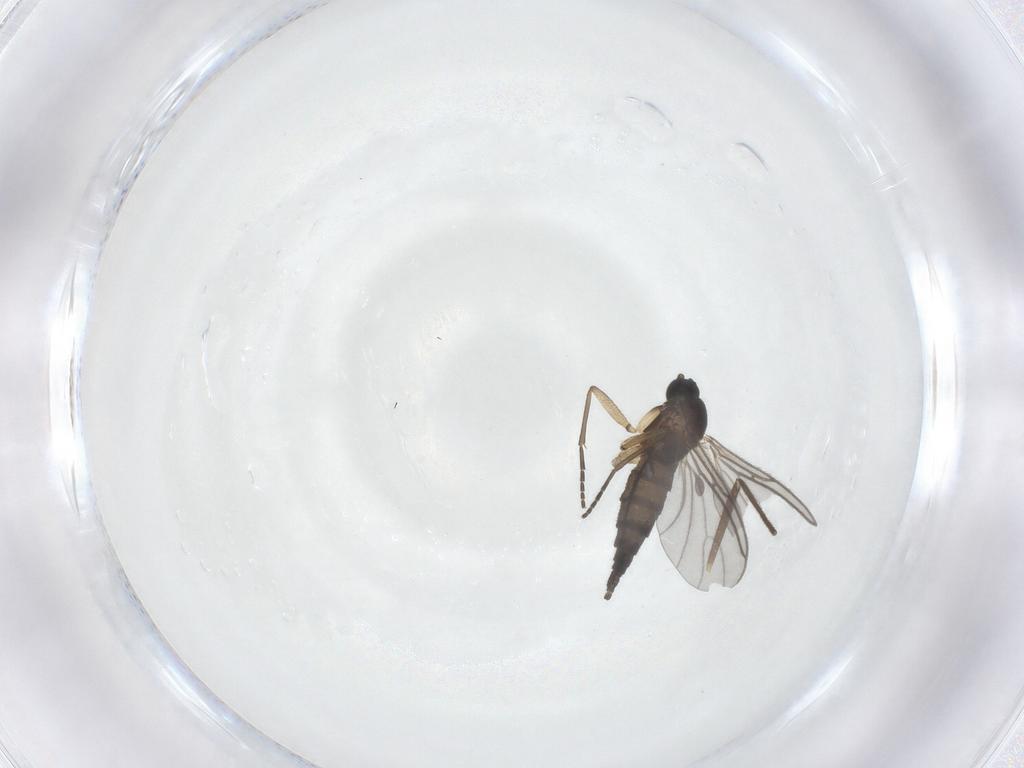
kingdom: Animalia
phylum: Arthropoda
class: Insecta
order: Diptera
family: Sciaridae
